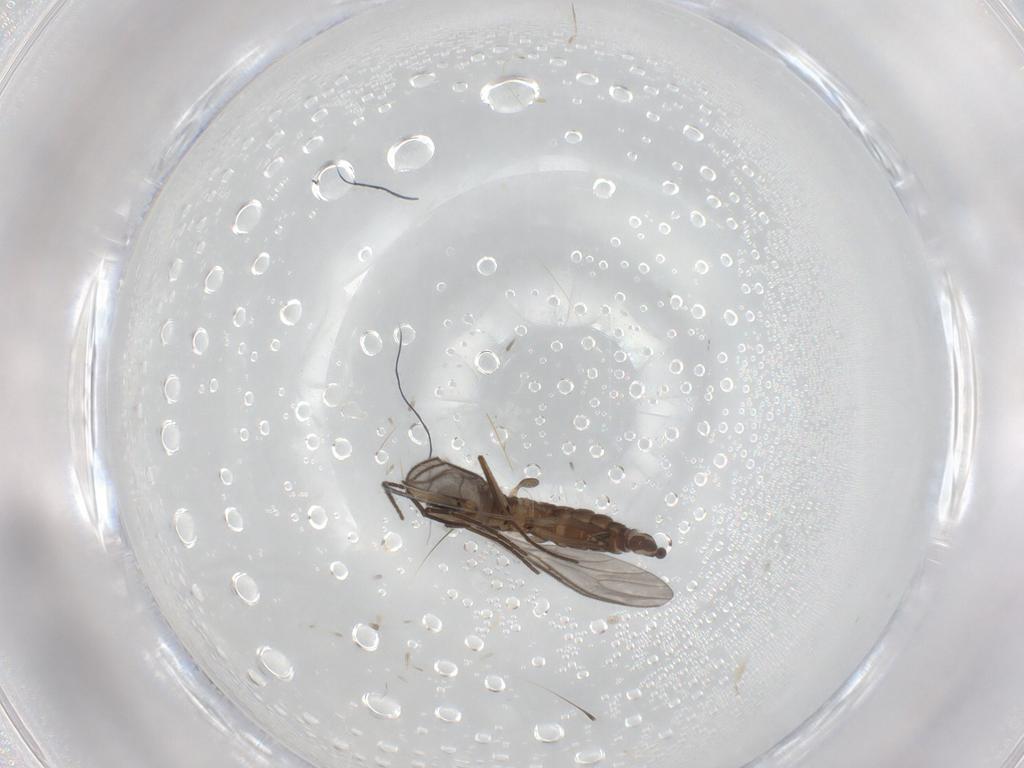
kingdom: Animalia
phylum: Arthropoda
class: Insecta
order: Diptera
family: Sciaridae
